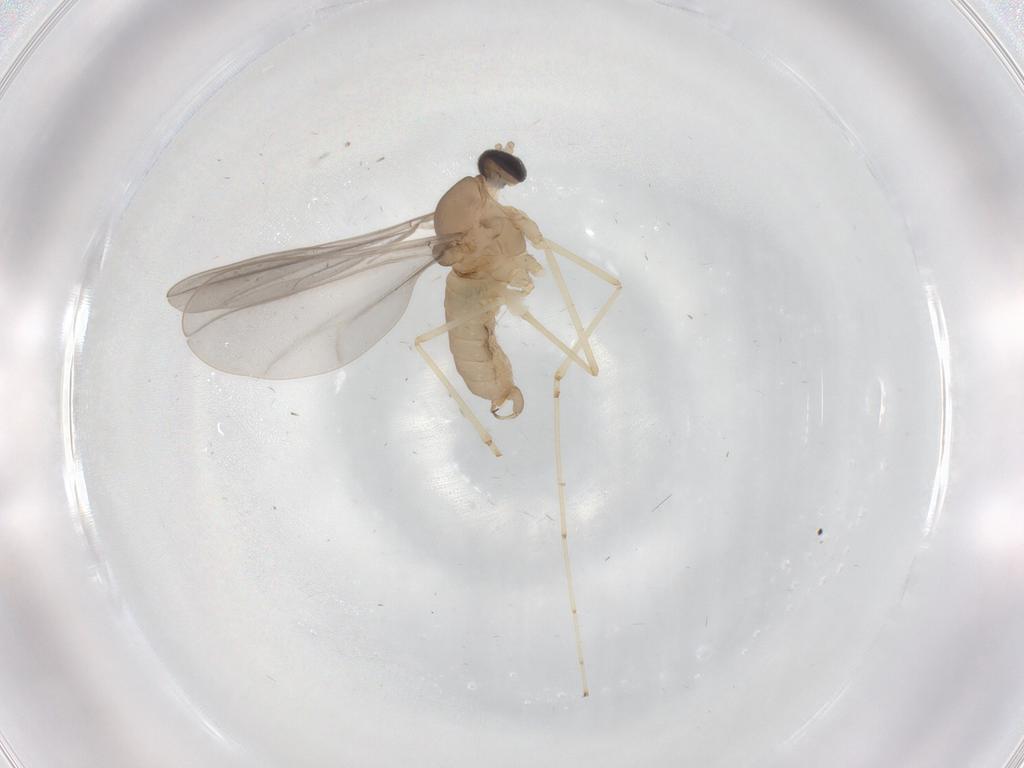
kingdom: Animalia
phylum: Arthropoda
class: Insecta
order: Diptera
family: Cecidomyiidae
